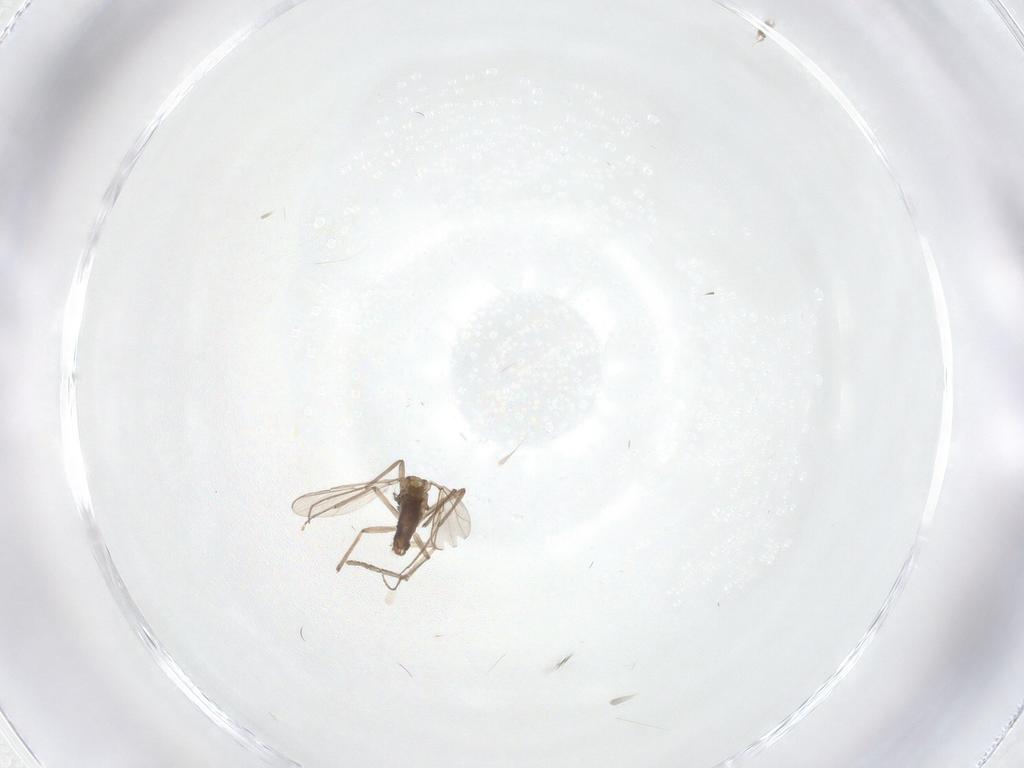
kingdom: Animalia
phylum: Arthropoda
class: Insecta
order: Diptera
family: Chironomidae
